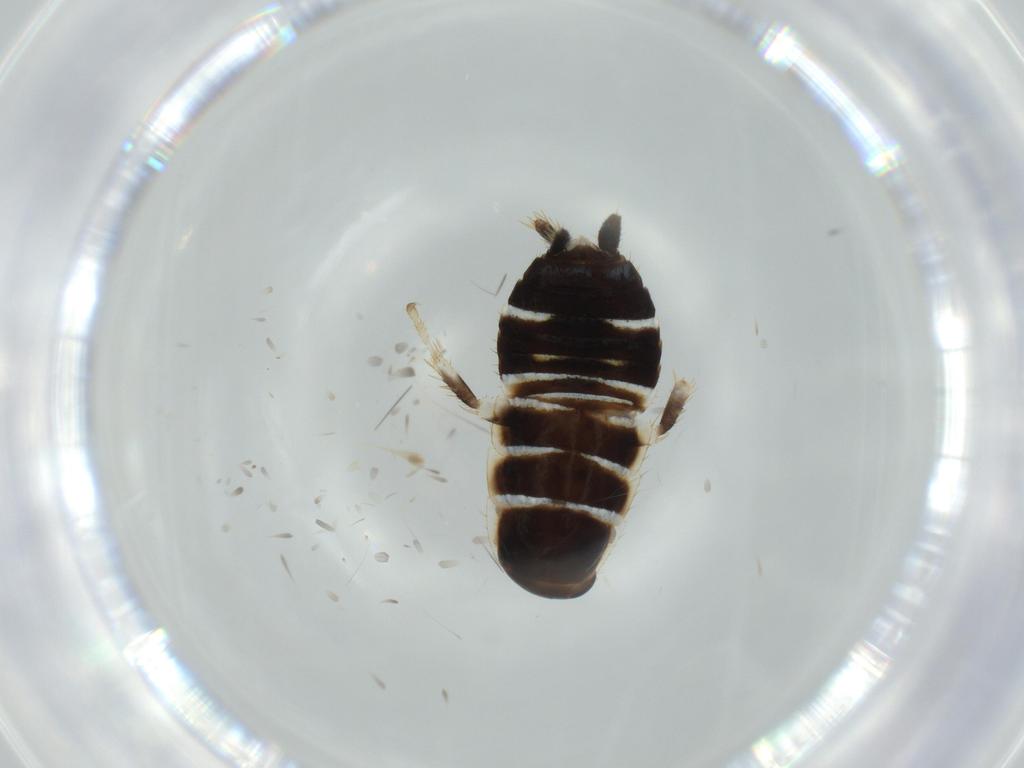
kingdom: Animalia
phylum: Arthropoda
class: Insecta
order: Blattodea
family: Ectobiidae
